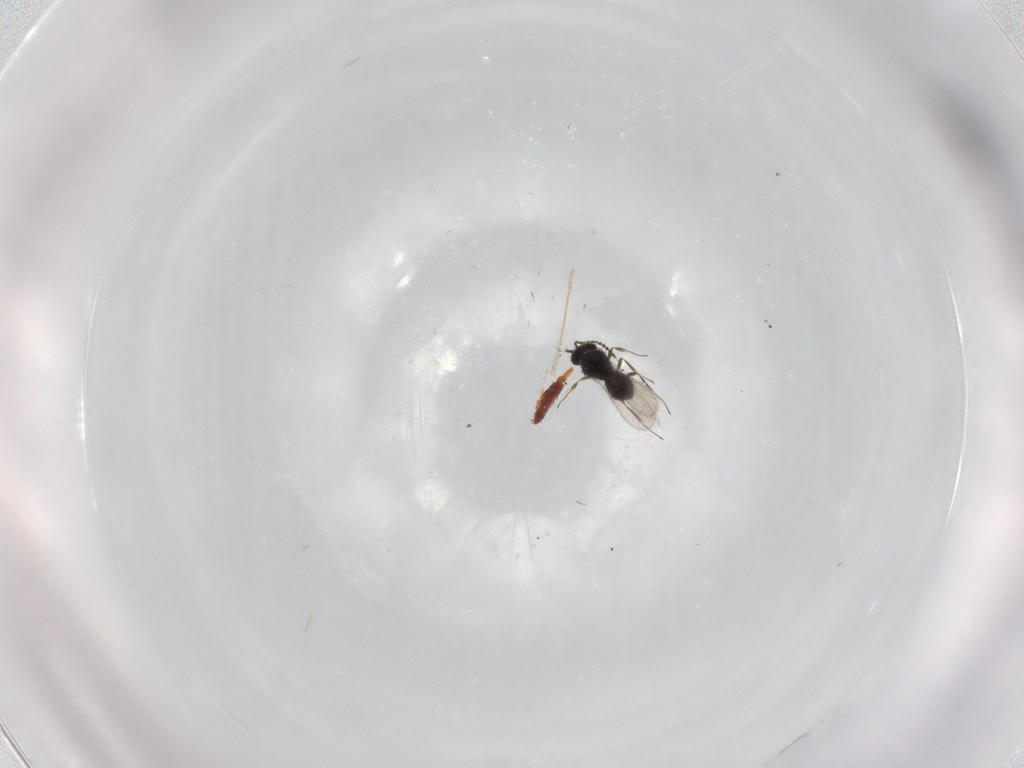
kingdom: Animalia
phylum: Arthropoda
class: Insecta
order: Hymenoptera
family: Scelionidae
